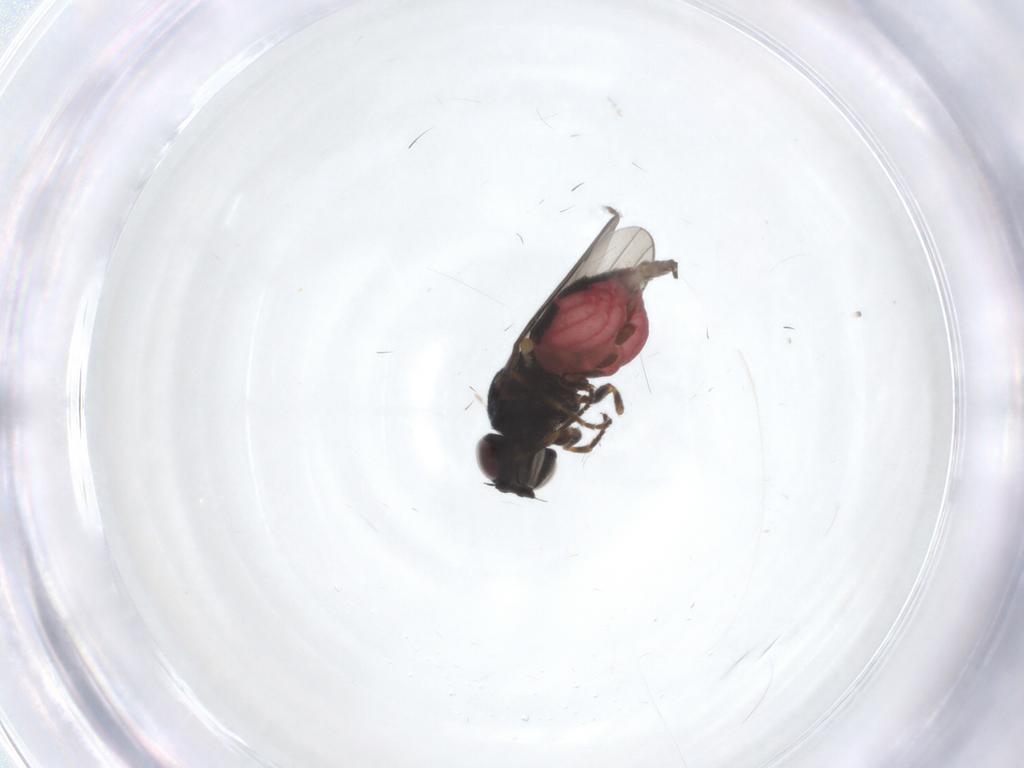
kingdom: Animalia
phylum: Arthropoda
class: Insecta
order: Diptera
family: Chloropidae
